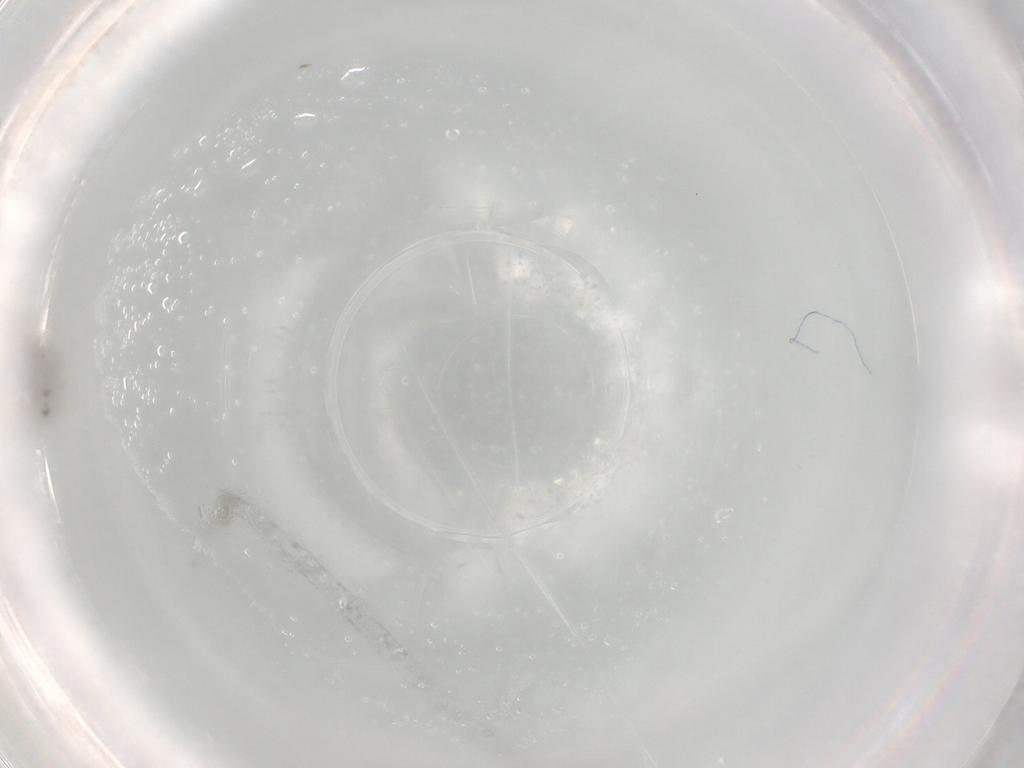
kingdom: Animalia
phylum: Arthropoda
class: Insecta
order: Diptera
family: Cecidomyiidae
